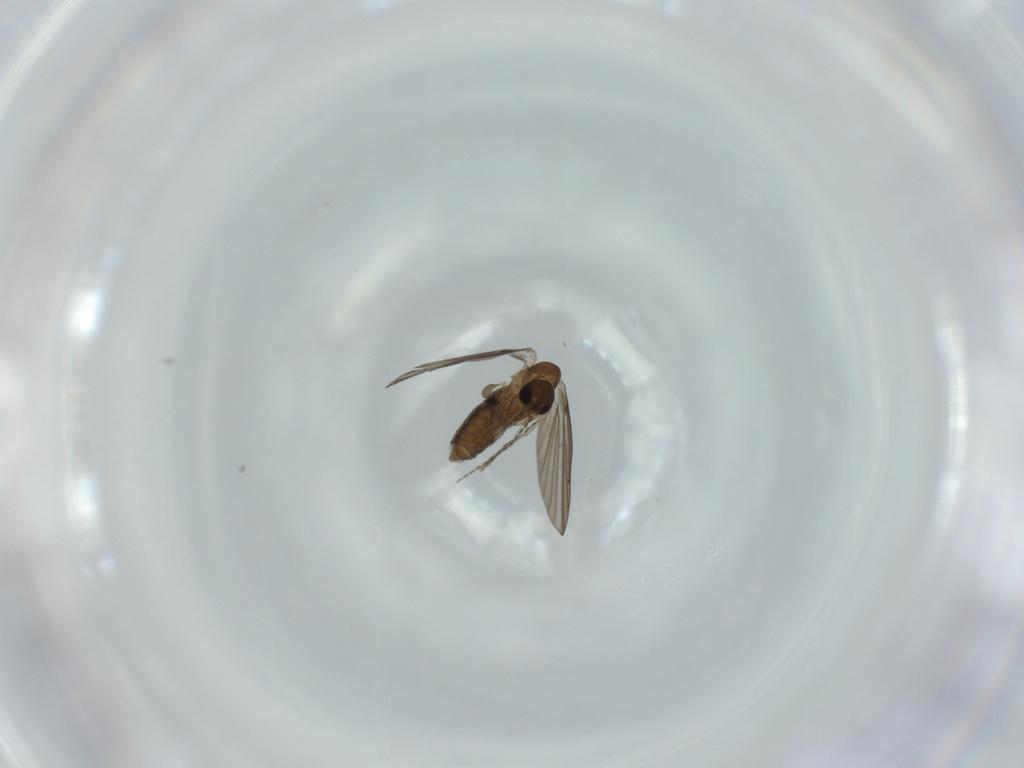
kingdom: Animalia
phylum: Arthropoda
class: Insecta
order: Diptera
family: Psychodidae
